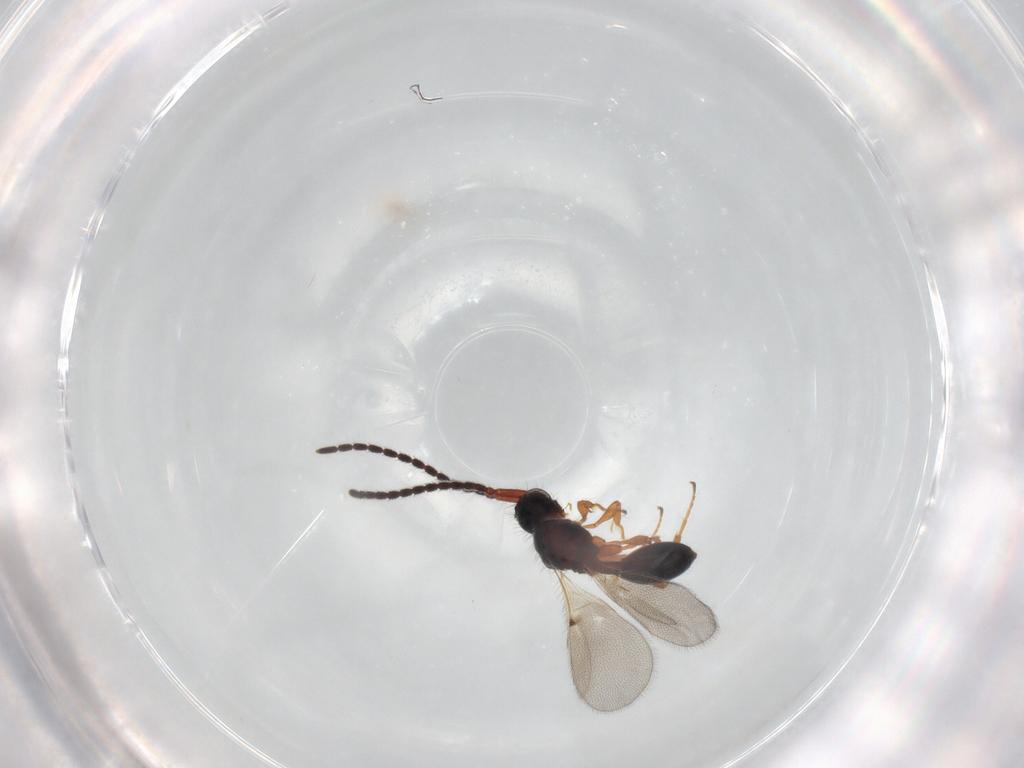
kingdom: Animalia
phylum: Arthropoda
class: Insecta
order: Hymenoptera
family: Diapriidae
